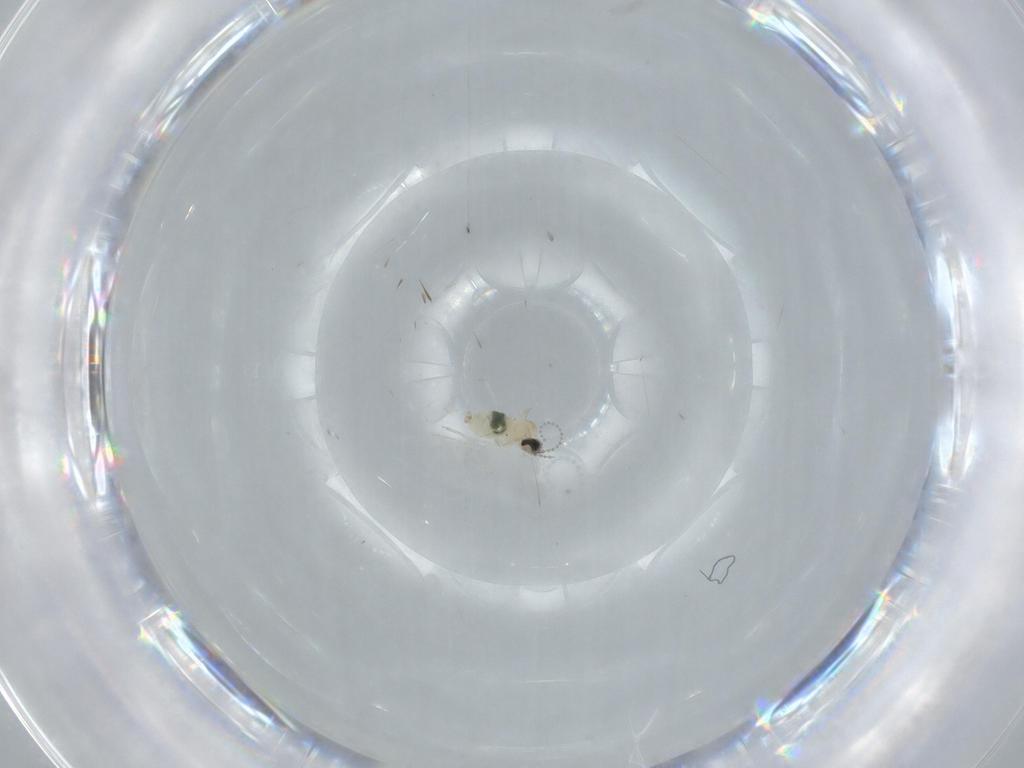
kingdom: Animalia
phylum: Arthropoda
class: Insecta
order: Diptera
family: Cecidomyiidae
